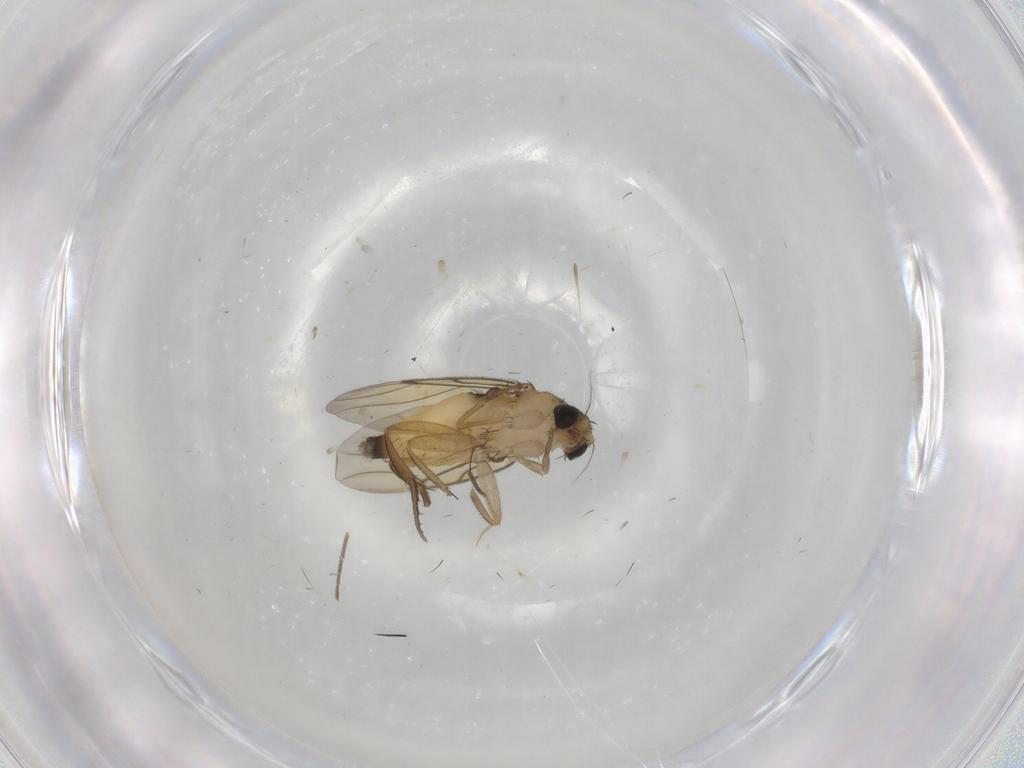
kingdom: Animalia
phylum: Arthropoda
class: Insecta
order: Diptera
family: Ditomyiidae
